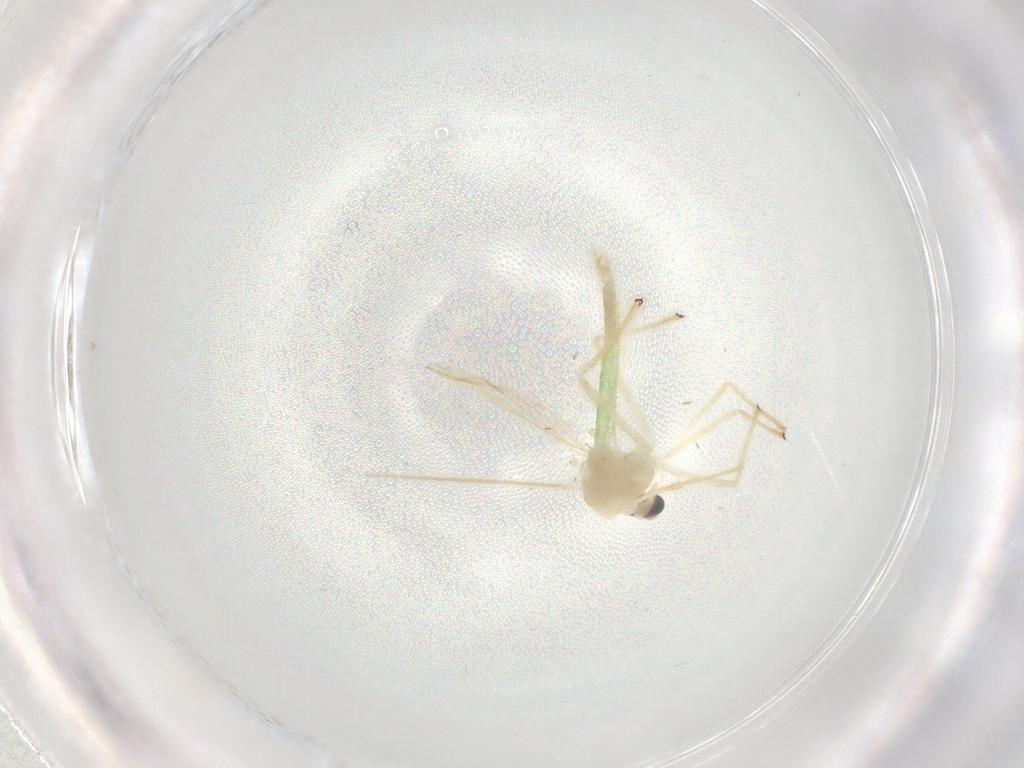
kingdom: Animalia
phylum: Arthropoda
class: Insecta
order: Diptera
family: Chironomidae
